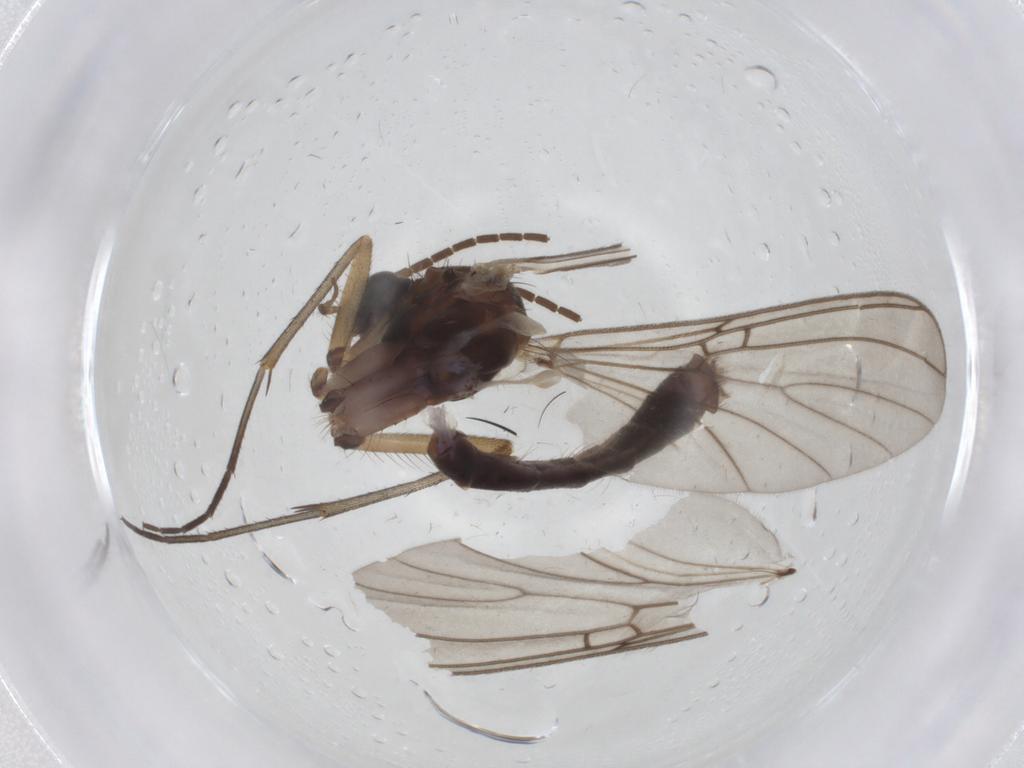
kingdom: Animalia
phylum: Arthropoda
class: Insecta
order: Diptera
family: Mycetophilidae
